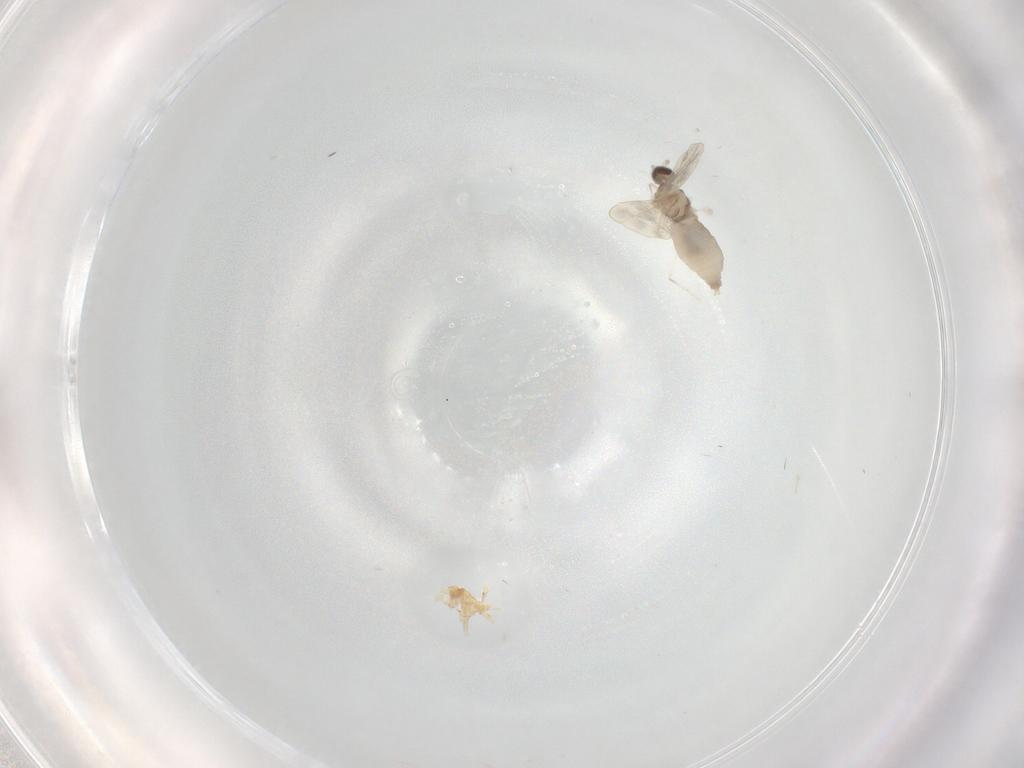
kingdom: Animalia
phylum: Arthropoda
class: Insecta
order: Diptera
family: Cecidomyiidae
